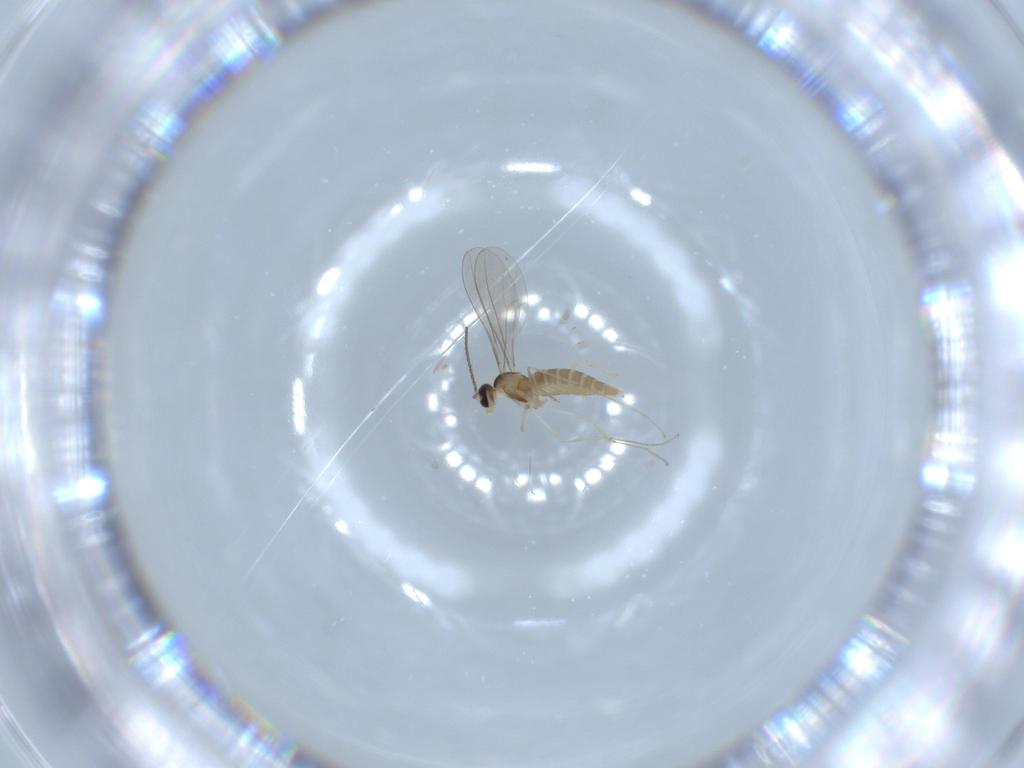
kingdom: Animalia
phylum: Arthropoda
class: Insecta
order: Diptera
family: Cecidomyiidae
